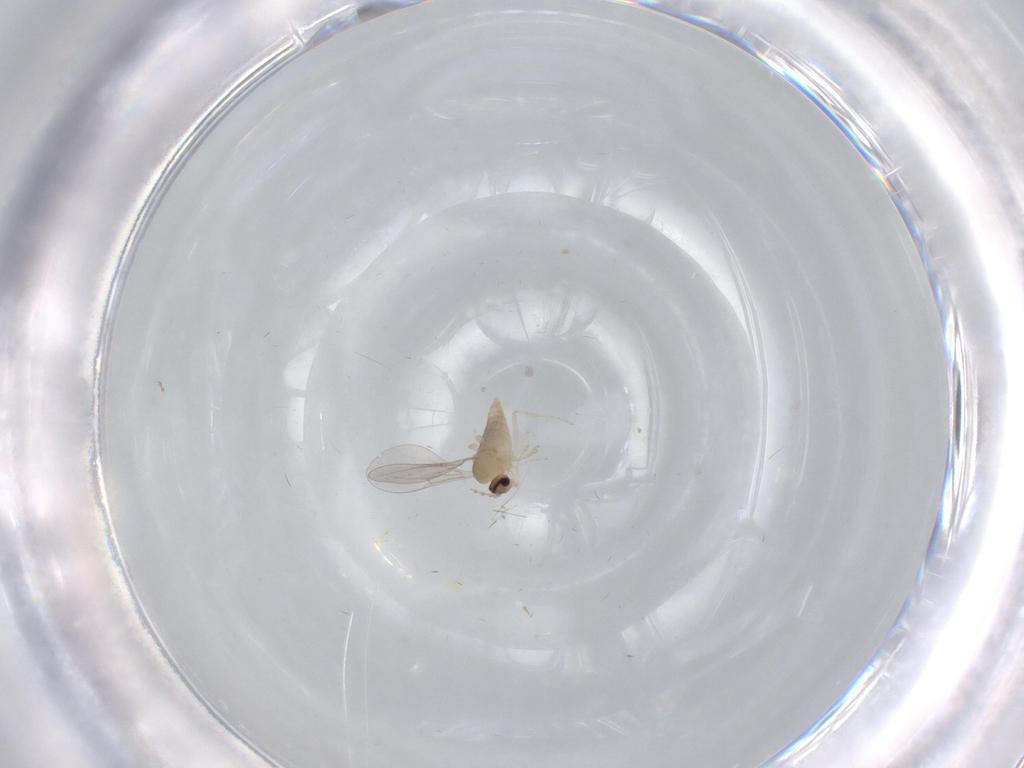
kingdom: Animalia
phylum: Arthropoda
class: Insecta
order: Diptera
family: Cecidomyiidae
